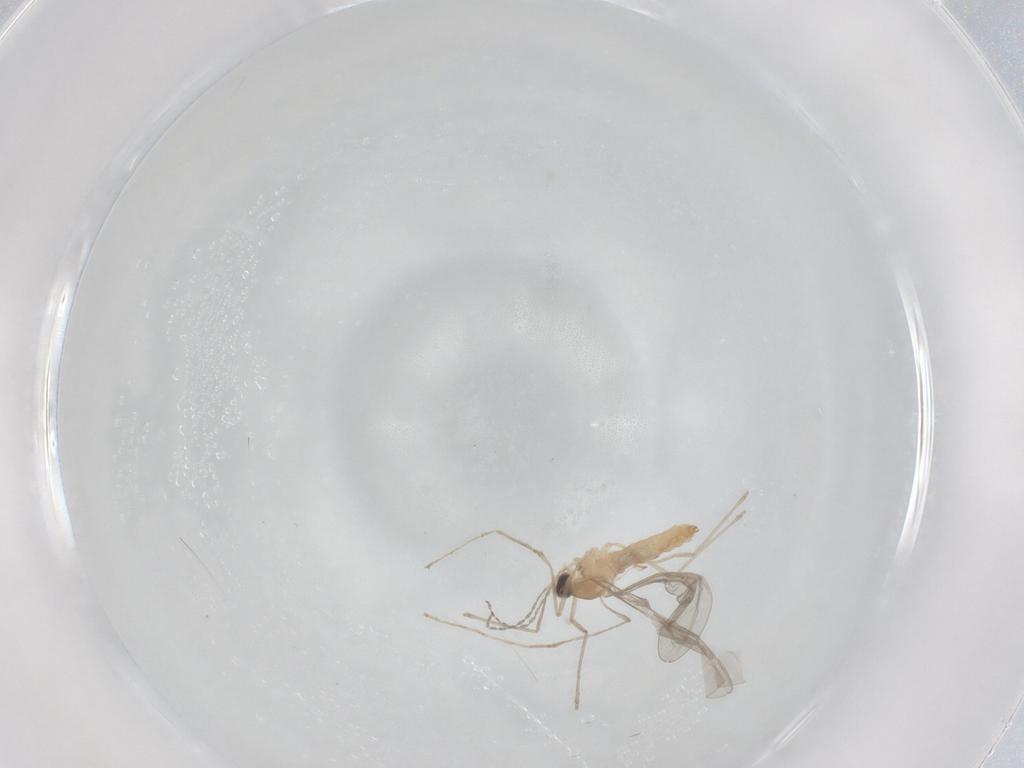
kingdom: Animalia
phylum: Arthropoda
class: Insecta
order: Diptera
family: Cecidomyiidae
